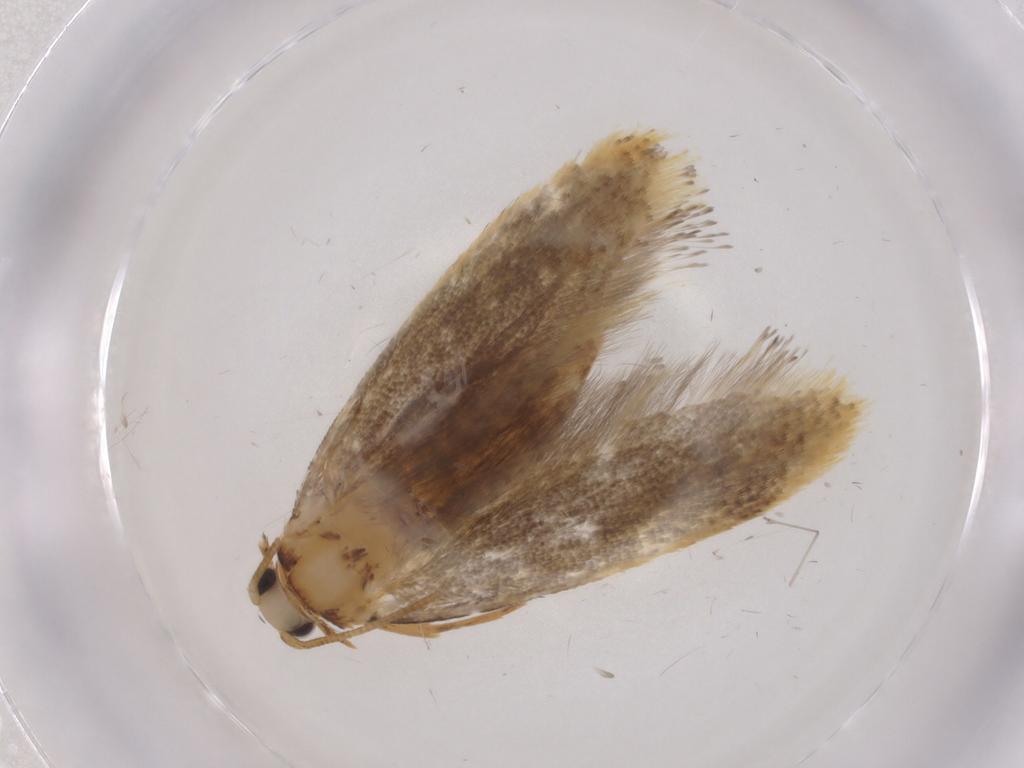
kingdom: Animalia
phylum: Arthropoda
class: Insecta
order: Lepidoptera
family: Tineidae
